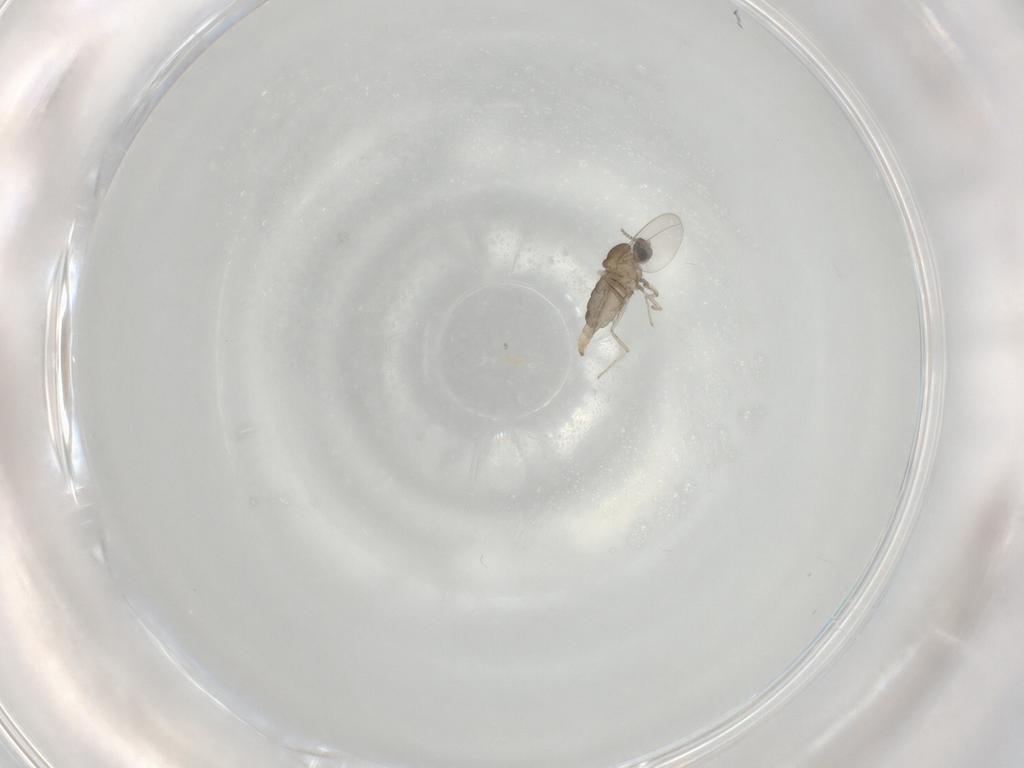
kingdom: Animalia
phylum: Arthropoda
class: Insecta
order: Diptera
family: Cecidomyiidae
